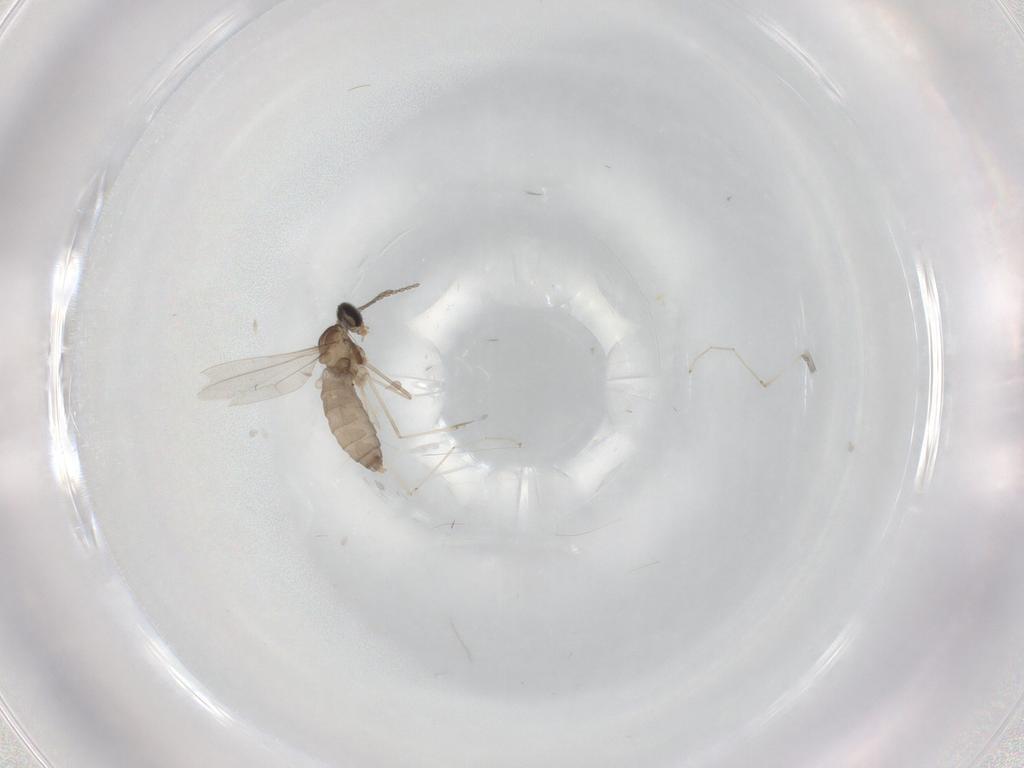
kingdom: Animalia
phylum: Arthropoda
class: Insecta
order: Diptera
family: Cecidomyiidae
